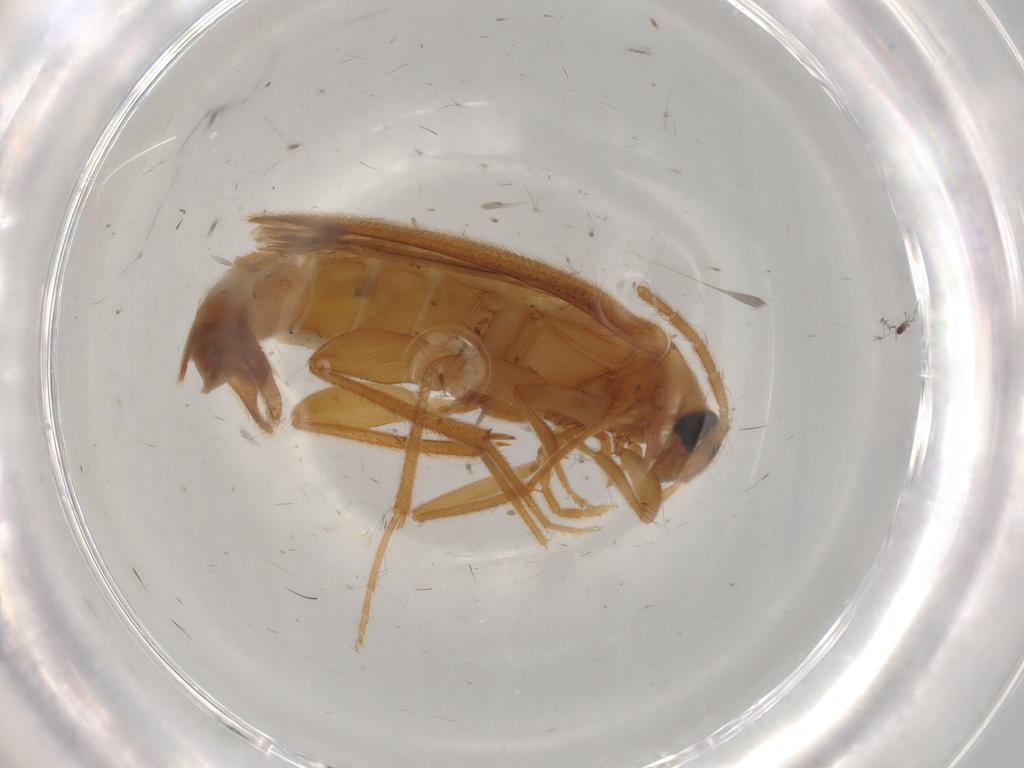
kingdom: Animalia
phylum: Arthropoda
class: Insecta
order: Coleoptera
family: Scraptiidae
